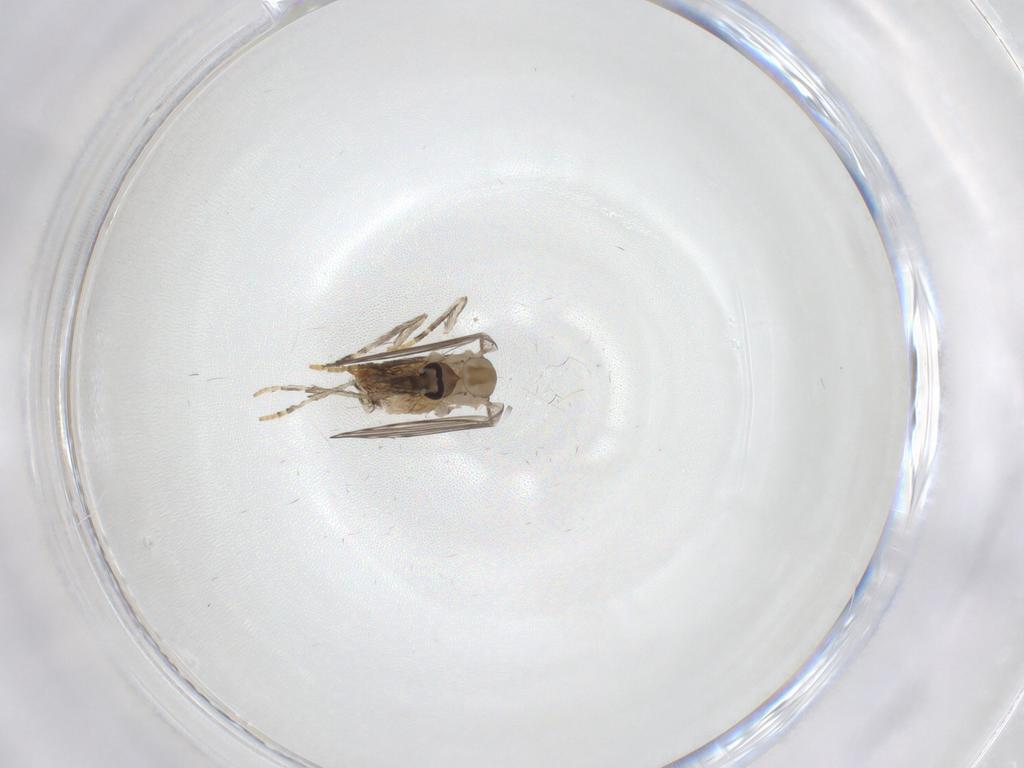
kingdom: Animalia
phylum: Arthropoda
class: Insecta
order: Diptera
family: Psychodidae
